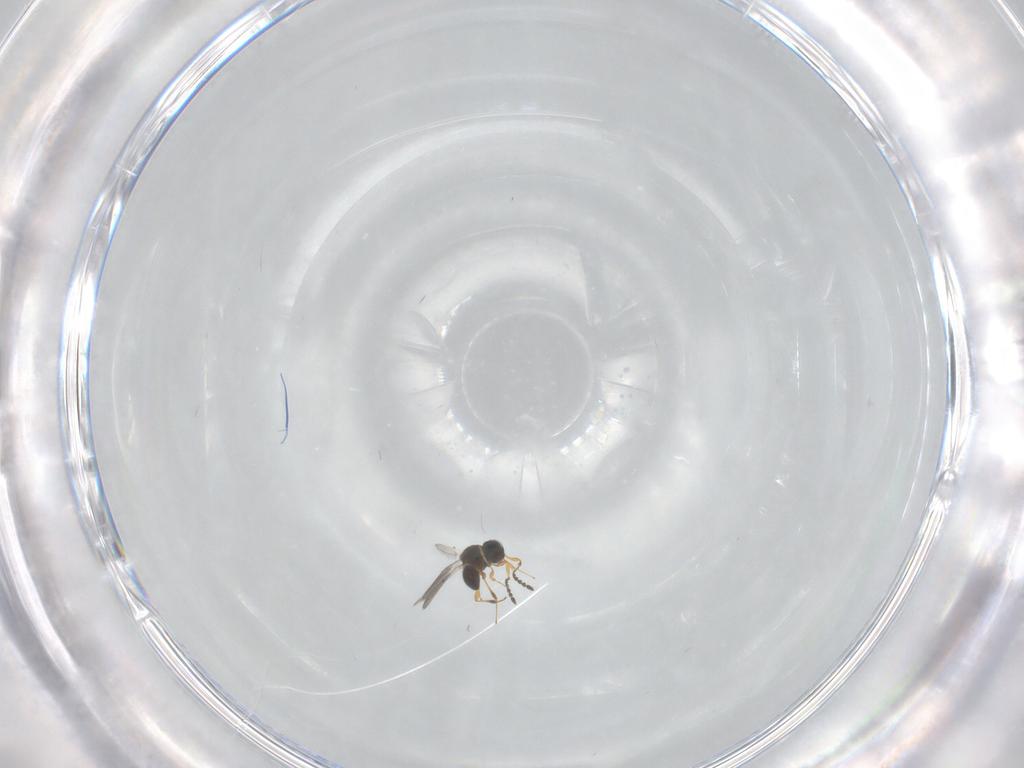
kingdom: Animalia
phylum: Arthropoda
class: Insecta
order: Hymenoptera
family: Platygastridae
